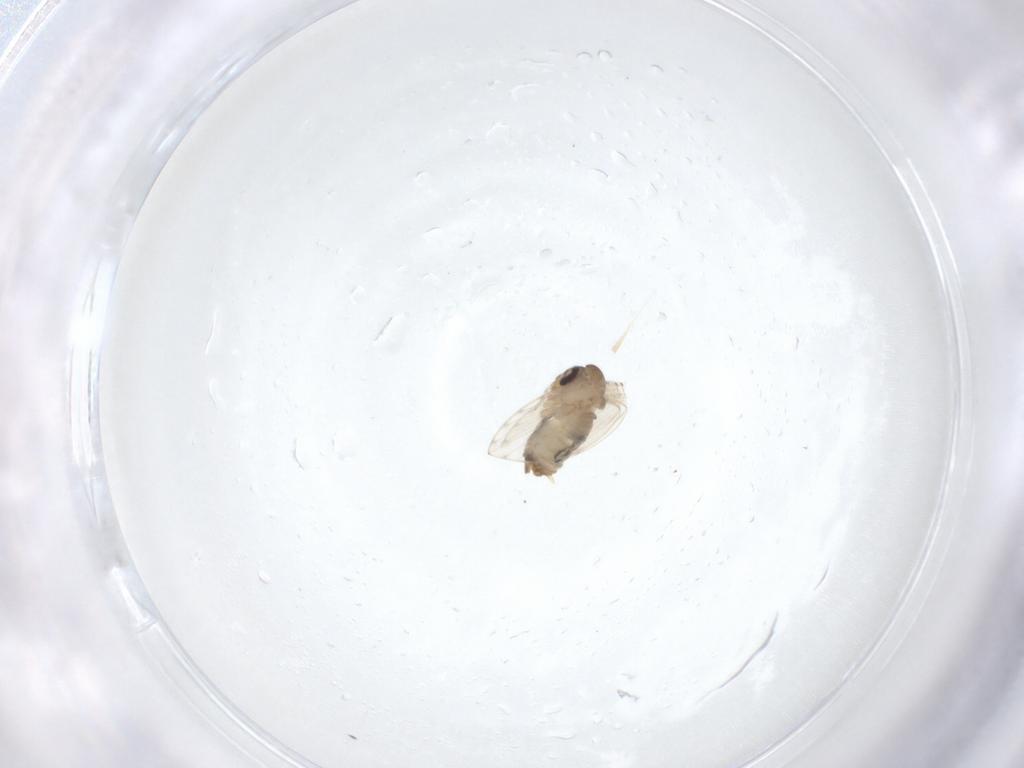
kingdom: Animalia
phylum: Arthropoda
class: Insecta
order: Diptera
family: Psychodidae
